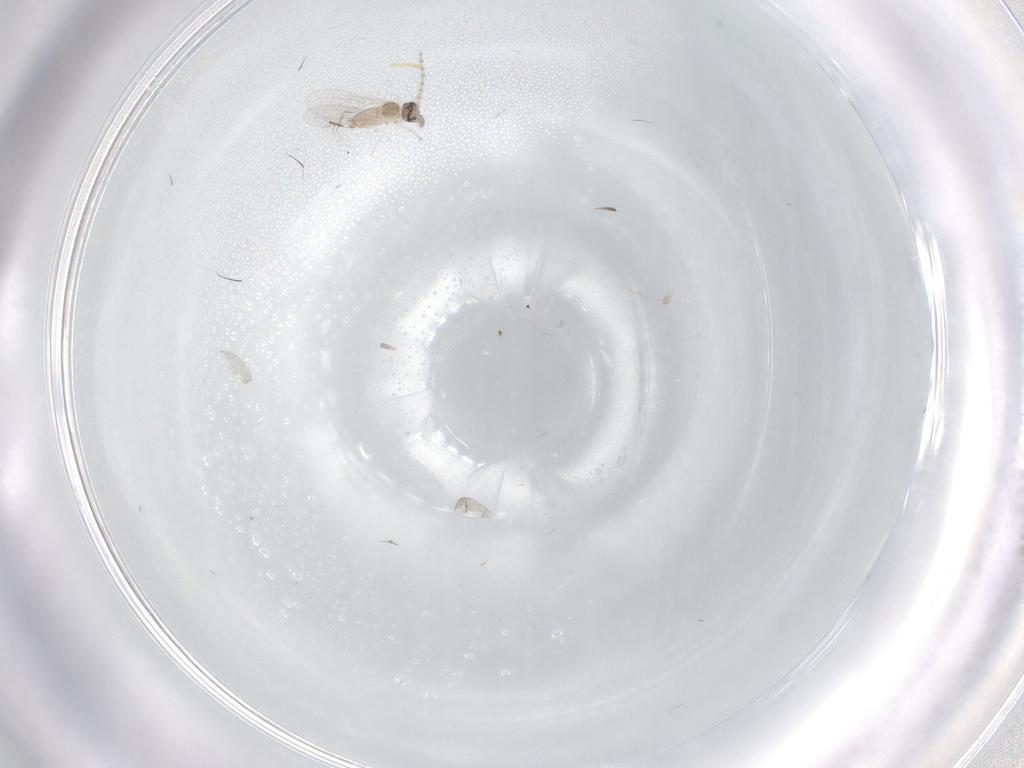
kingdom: Animalia
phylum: Arthropoda
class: Insecta
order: Diptera
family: Cecidomyiidae
